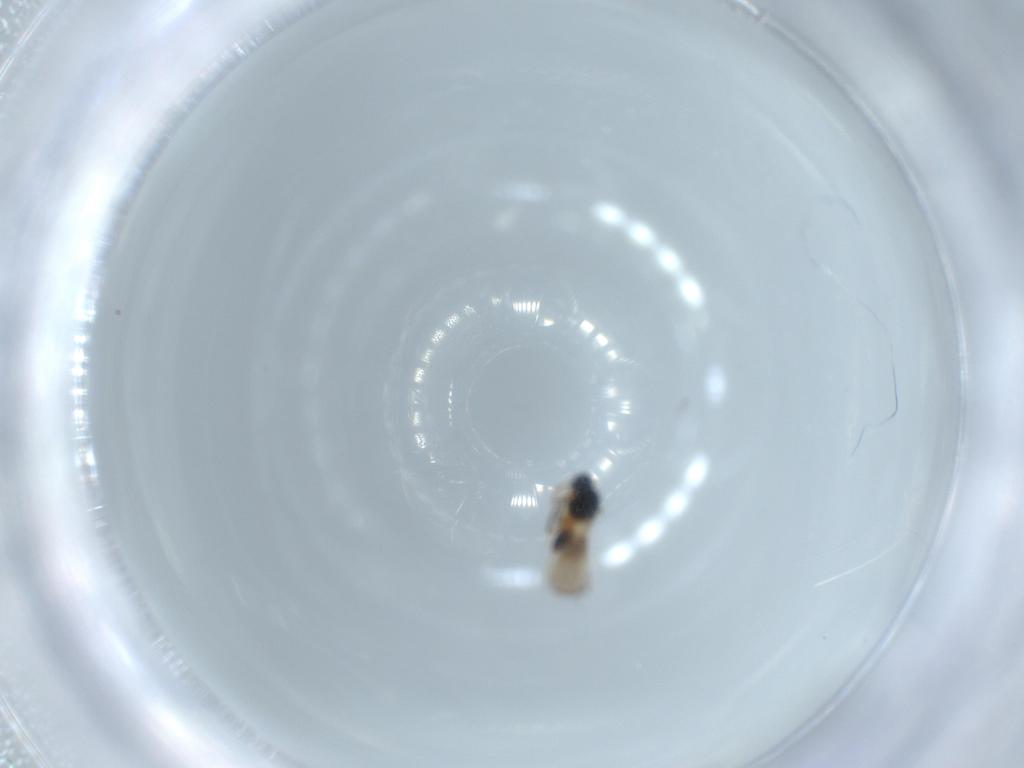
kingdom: Animalia
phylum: Arthropoda
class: Insecta
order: Hymenoptera
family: Platygastridae
